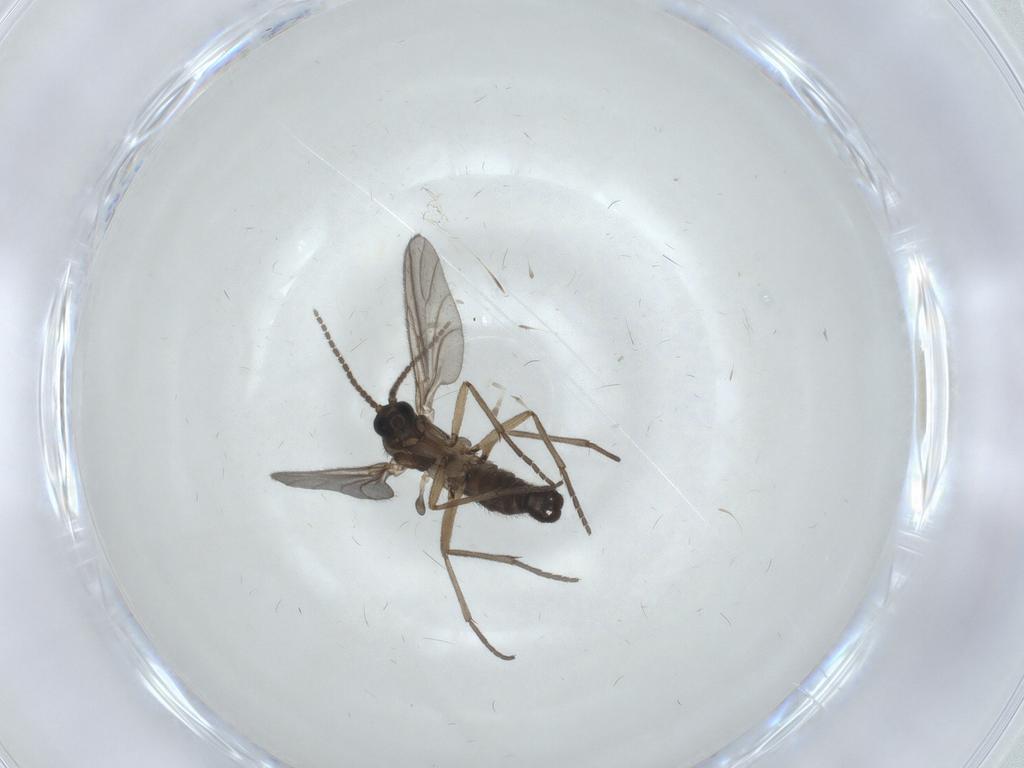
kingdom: Animalia
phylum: Arthropoda
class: Insecta
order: Diptera
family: Sciaridae
